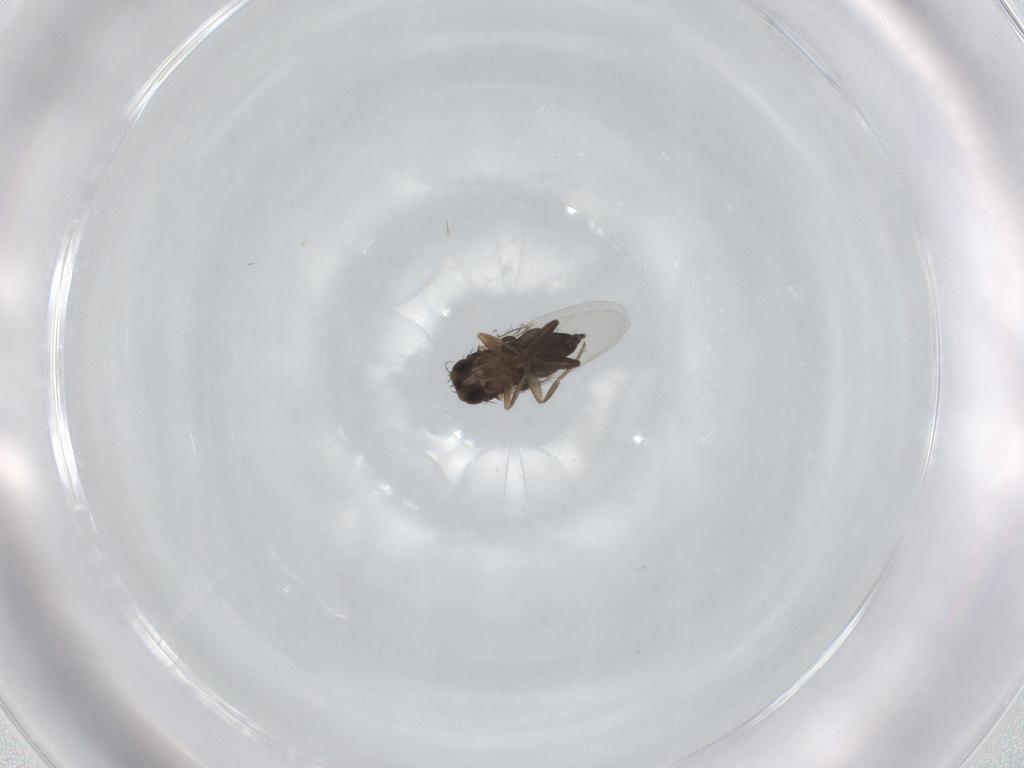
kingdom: Animalia
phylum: Arthropoda
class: Insecta
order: Diptera
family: Phoridae
